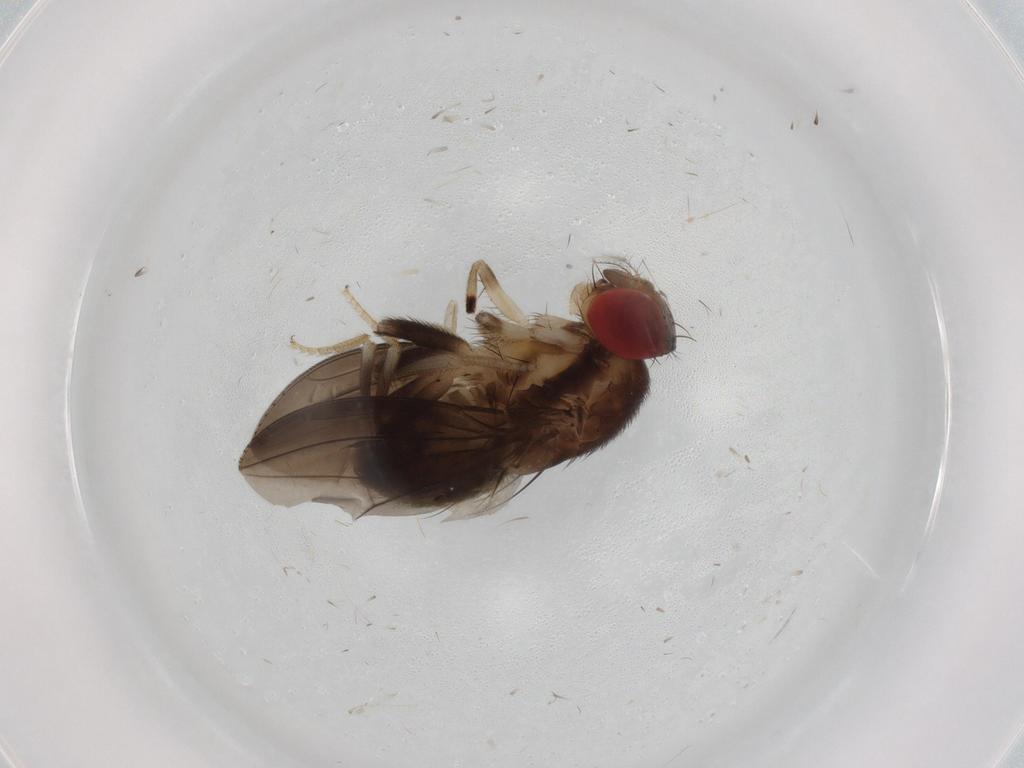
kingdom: Animalia
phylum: Arthropoda
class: Insecta
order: Diptera
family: Drosophilidae
